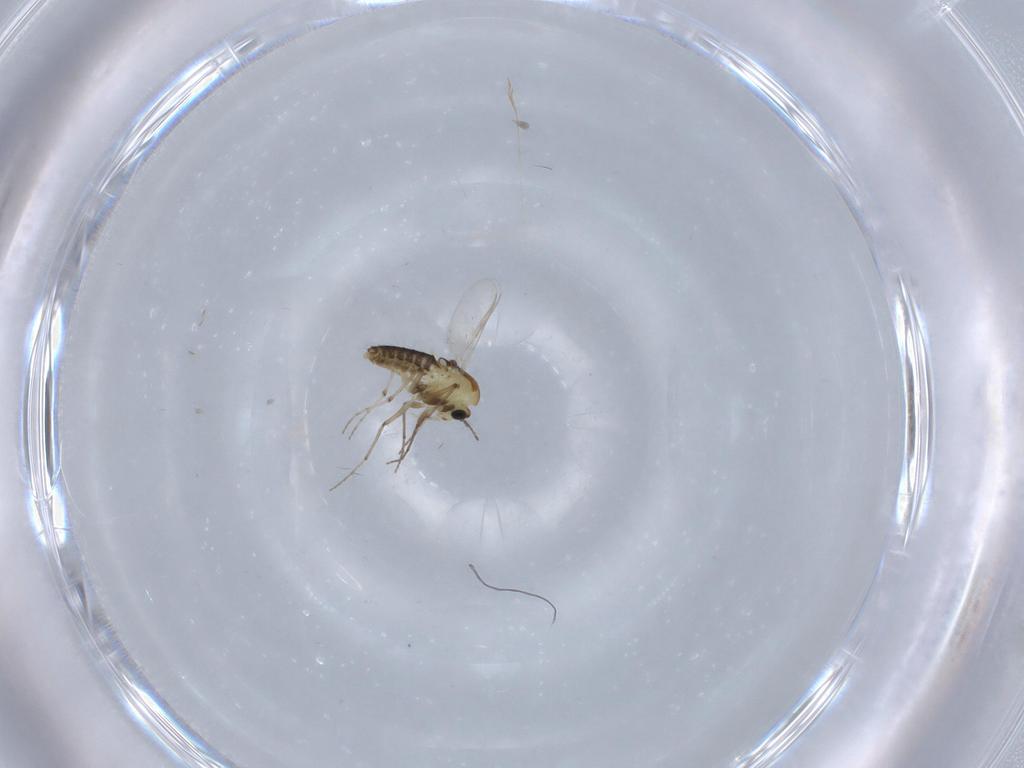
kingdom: Animalia
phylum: Arthropoda
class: Insecta
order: Diptera
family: Chironomidae
